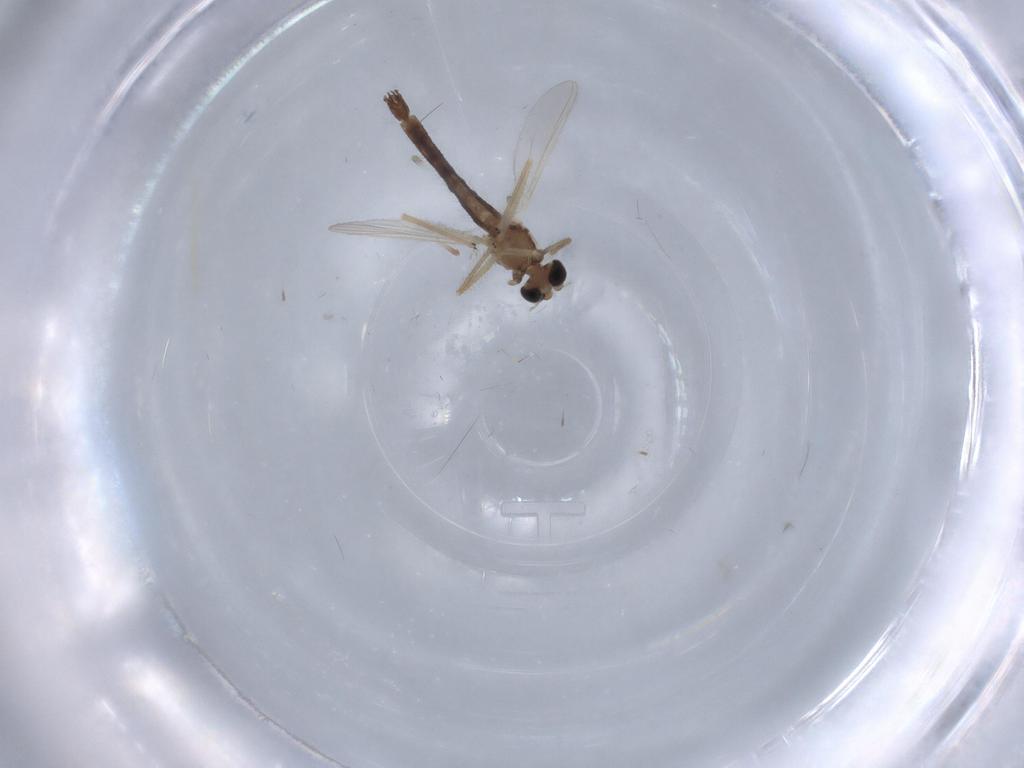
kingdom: Animalia
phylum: Arthropoda
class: Insecta
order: Diptera
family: Chironomidae
